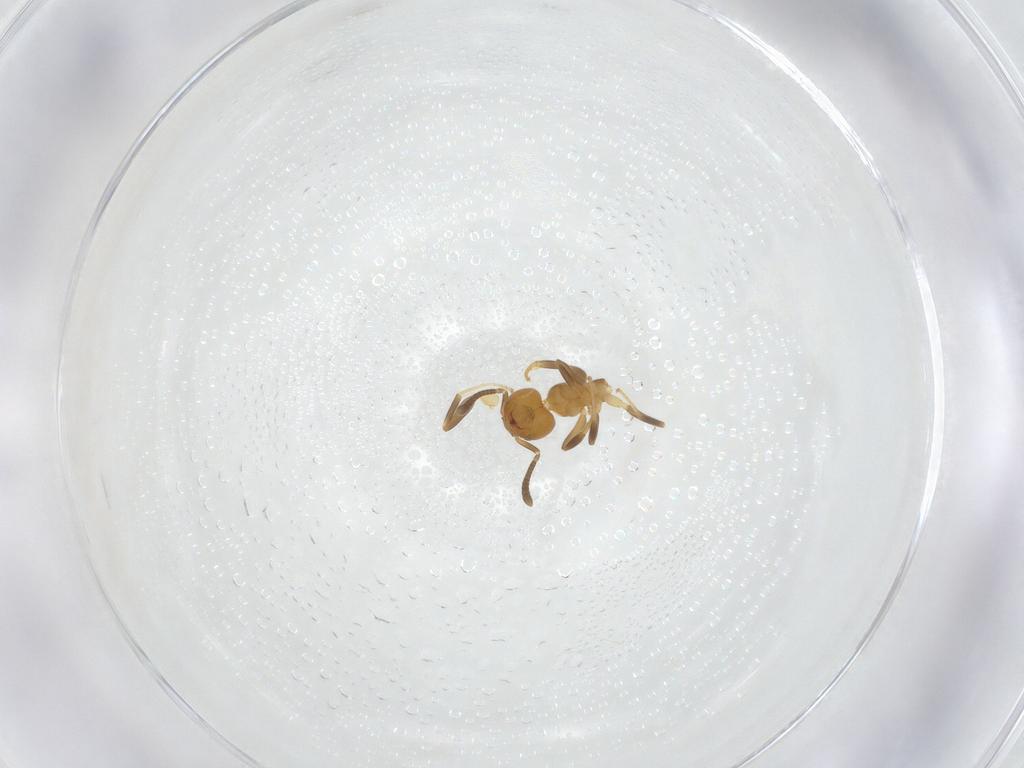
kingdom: Animalia
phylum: Arthropoda
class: Insecta
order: Hymenoptera
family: Formicidae
